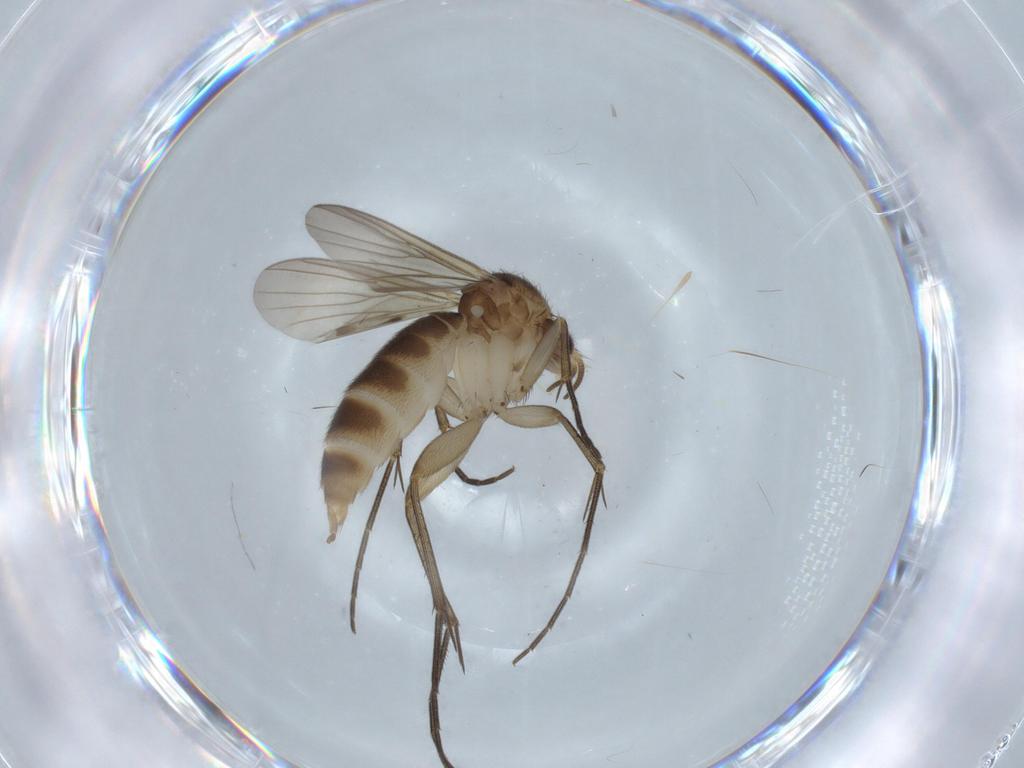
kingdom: Animalia
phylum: Arthropoda
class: Insecta
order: Diptera
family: Mycetophilidae
